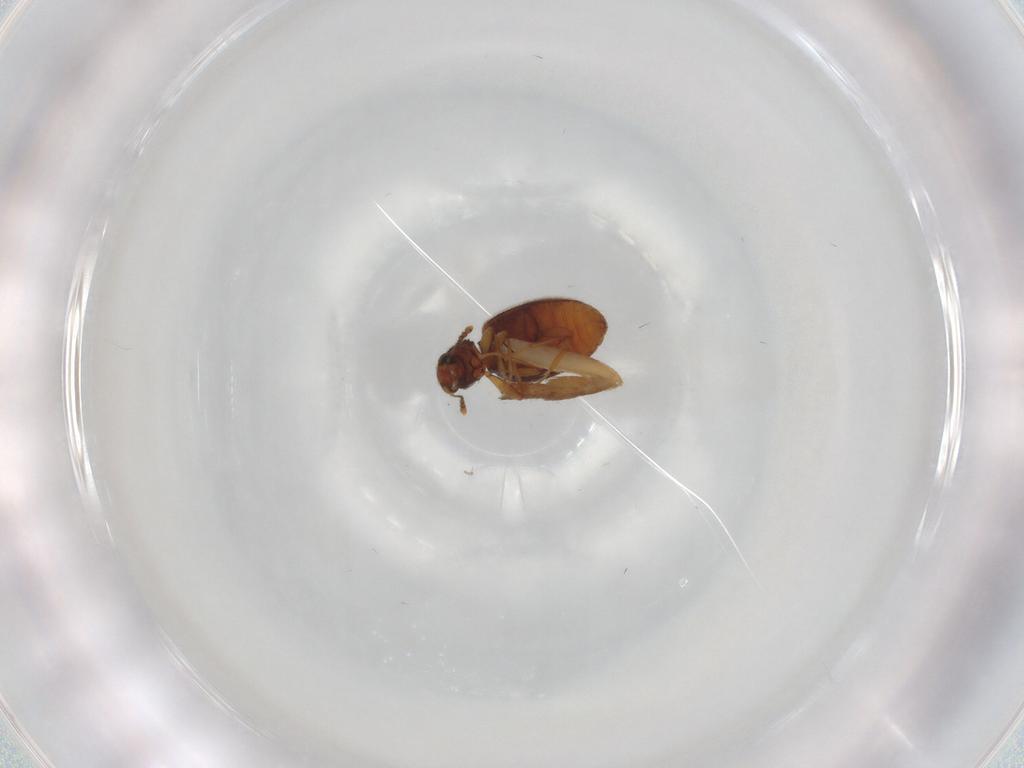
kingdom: Animalia
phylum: Arthropoda
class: Insecta
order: Coleoptera
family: Latridiidae
